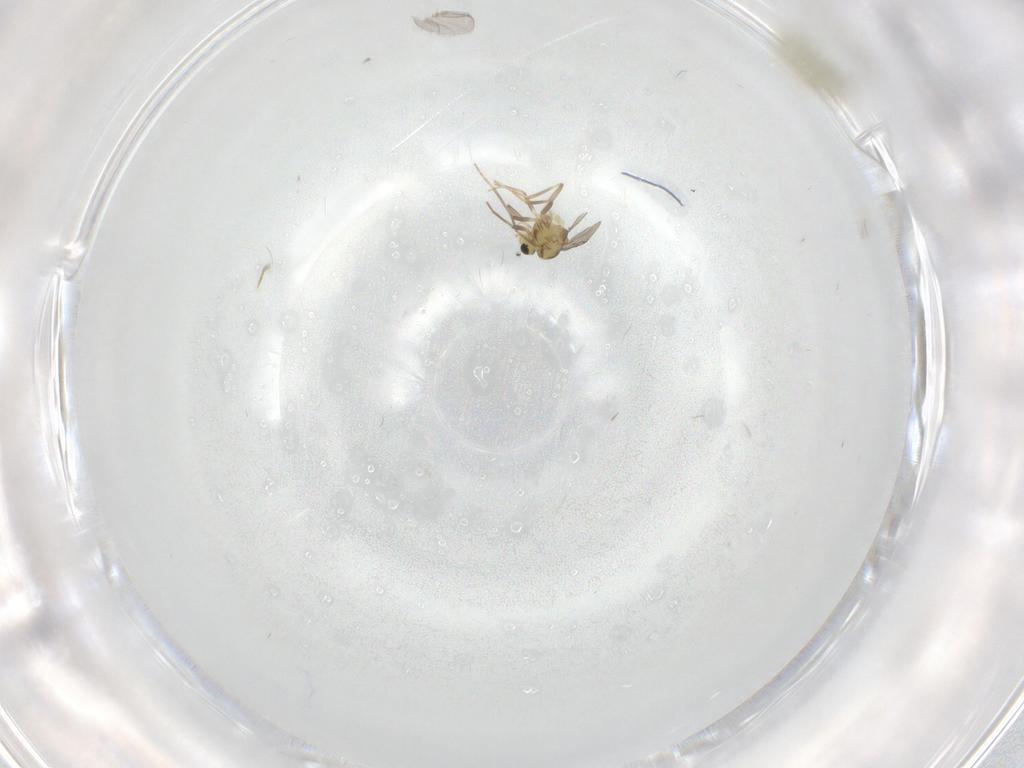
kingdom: Animalia
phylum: Arthropoda
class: Insecta
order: Diptera
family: Chironomidae
